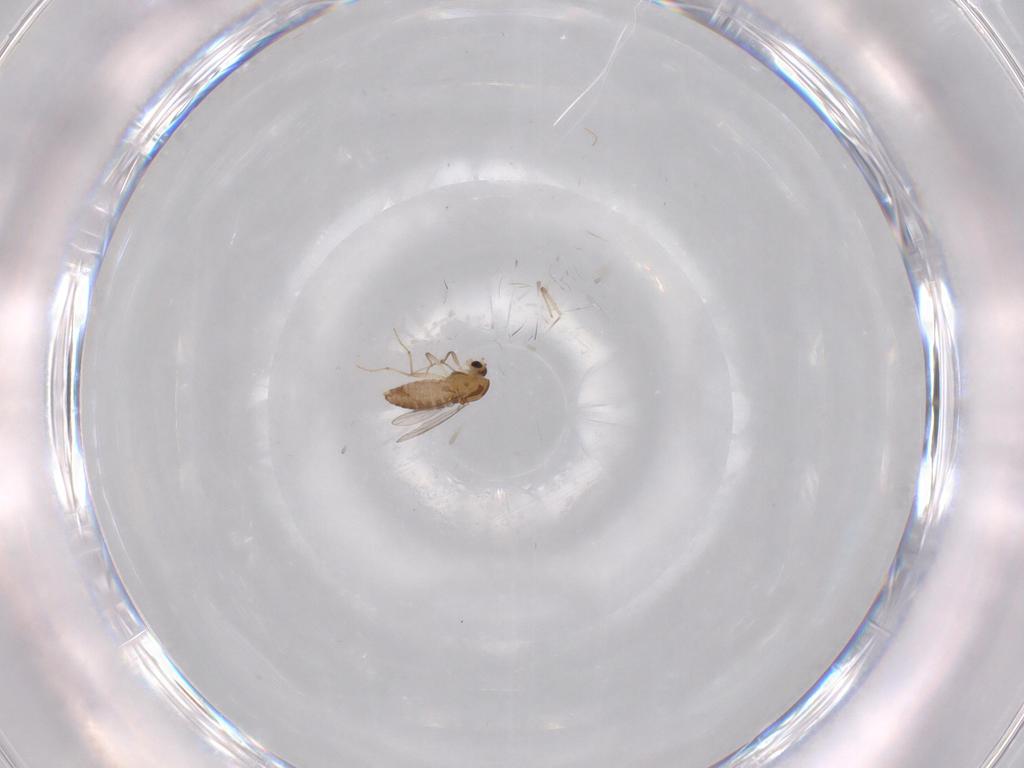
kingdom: Animalia
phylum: Arthropoda
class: Insecta
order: Diptera
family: Chironomidae
